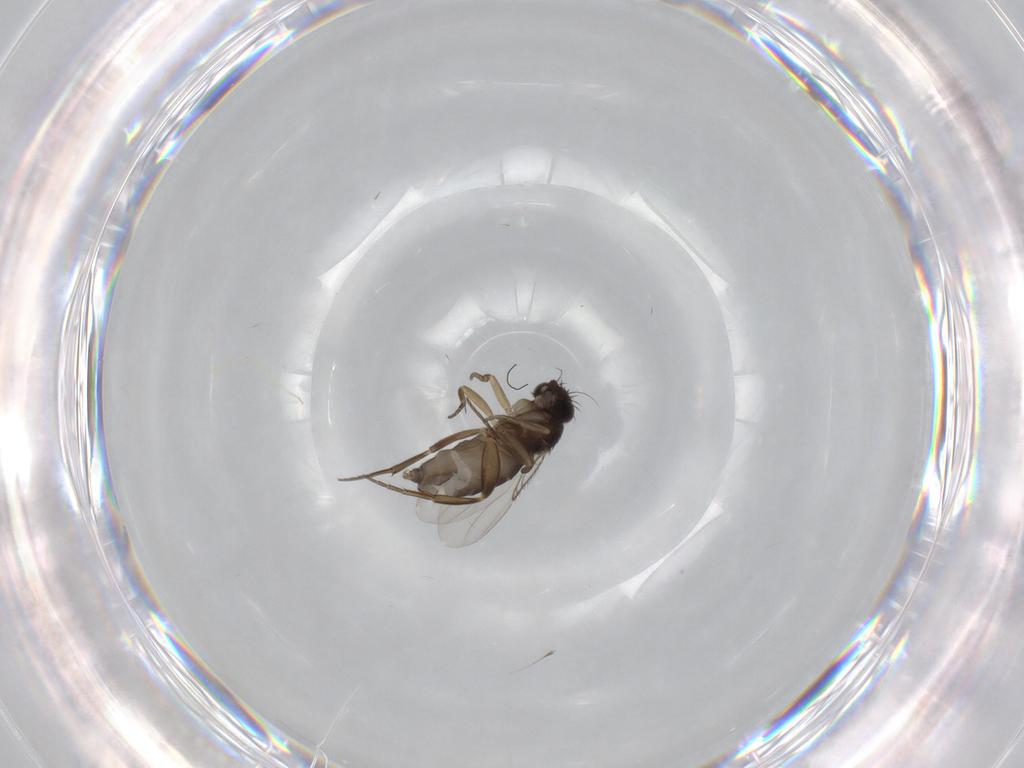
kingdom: Animalia
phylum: Arthropoda
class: Insecta
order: Diptera
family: Phoridae
